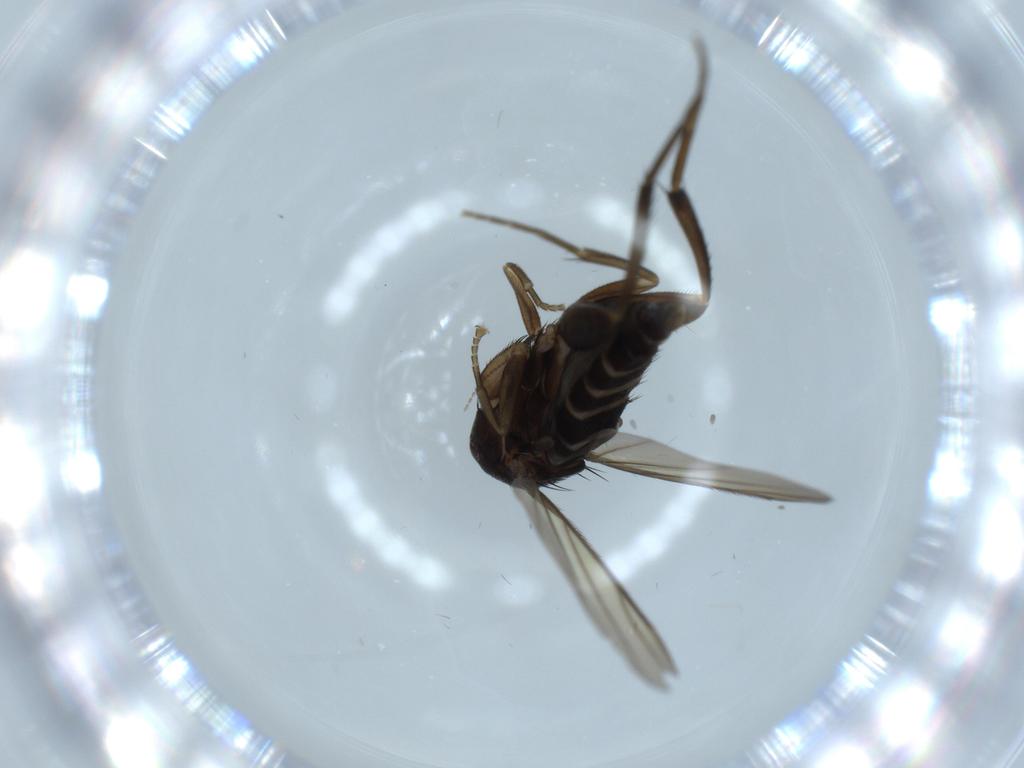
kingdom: Animalia
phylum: Arthropoda
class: Insecta
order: Diptera
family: Phoridae
